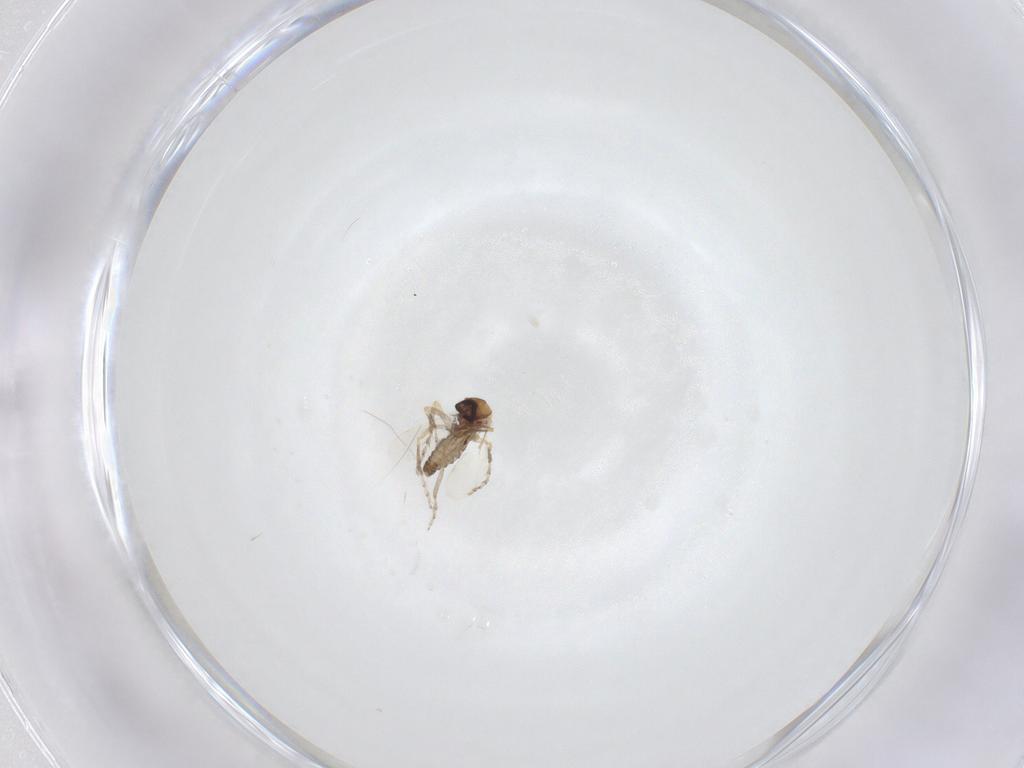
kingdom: Animalia
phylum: Arthropoda
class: Insecta
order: Diptera
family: Ceratopogonidae
